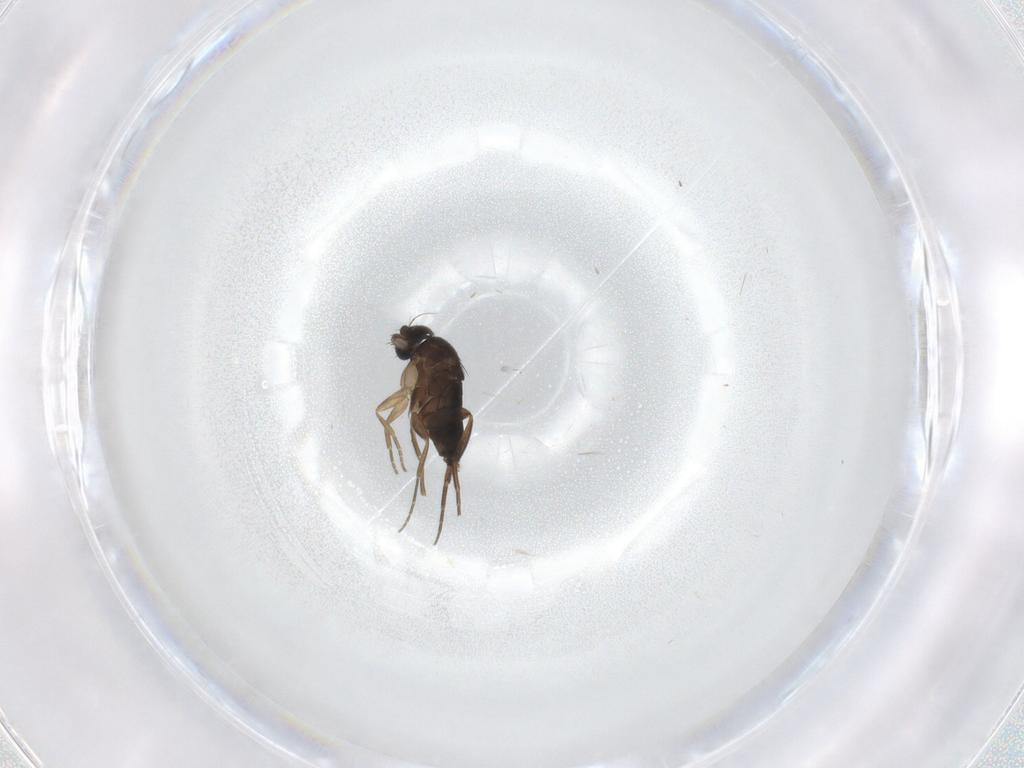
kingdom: Animalia
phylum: Arthropoda
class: Insecta
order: Diptera
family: Phoridae
